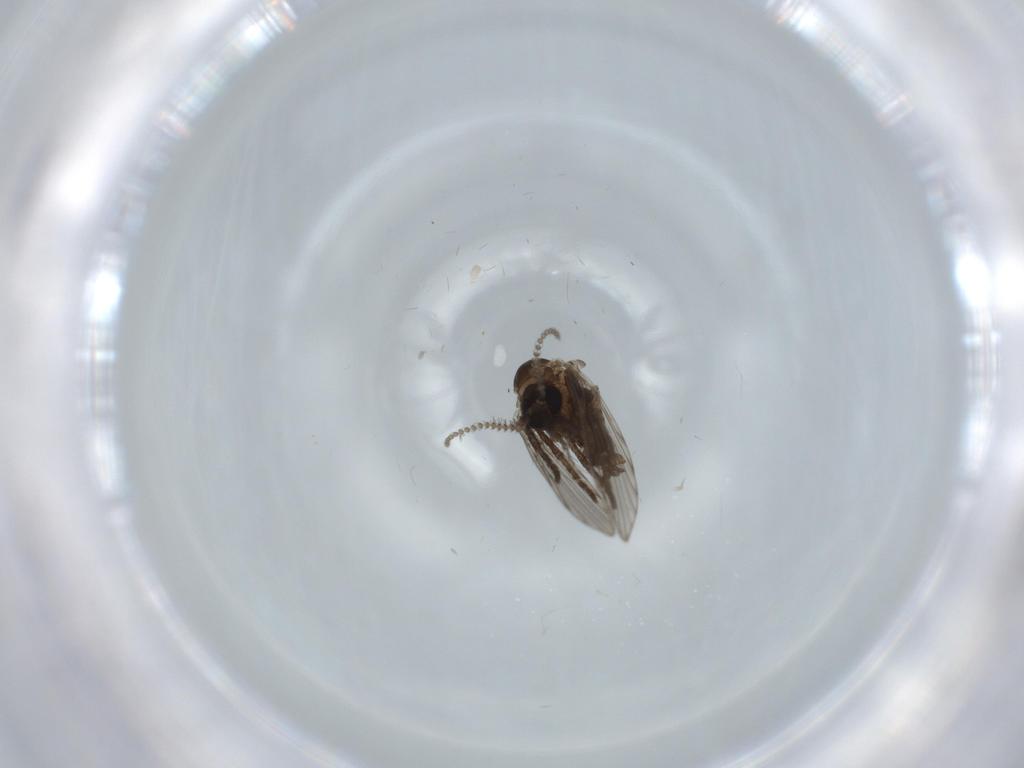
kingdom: Animalia
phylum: Arthropoda
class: Insecta
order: Diptera
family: Psychodidae
